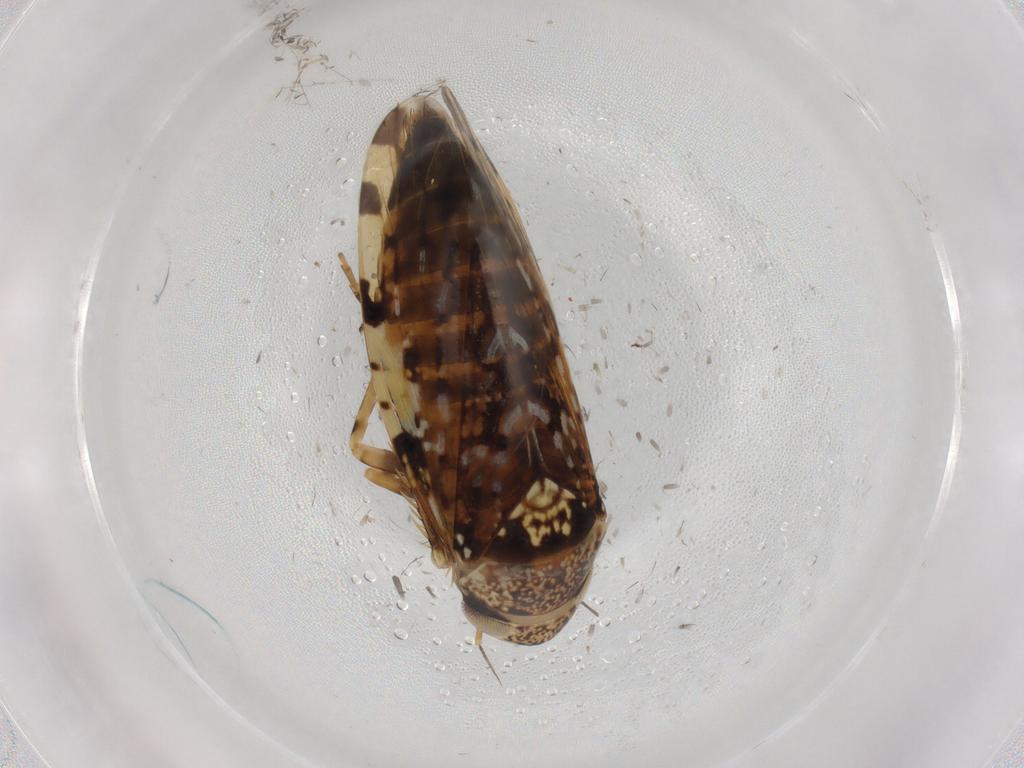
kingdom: Animalia
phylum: Arthropoda
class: Insecta
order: Hemiptera
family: Cicadellidae
